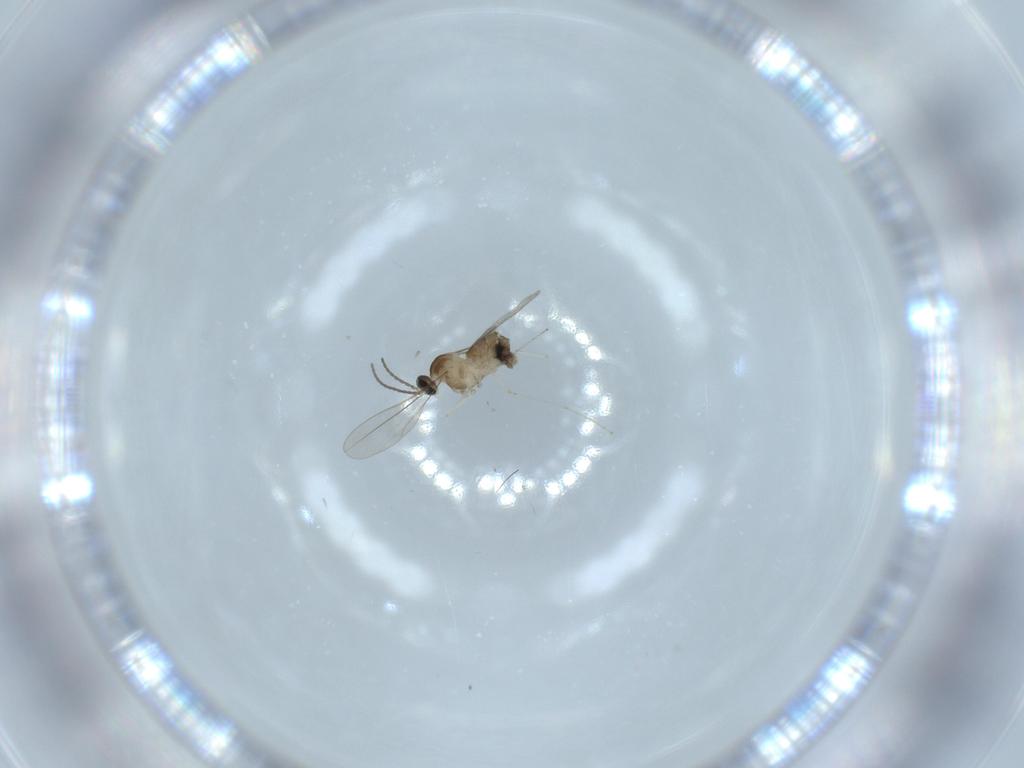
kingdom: Animalia
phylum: Arthropoda
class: Insecta
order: Diptera
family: Cecidomyiidae
